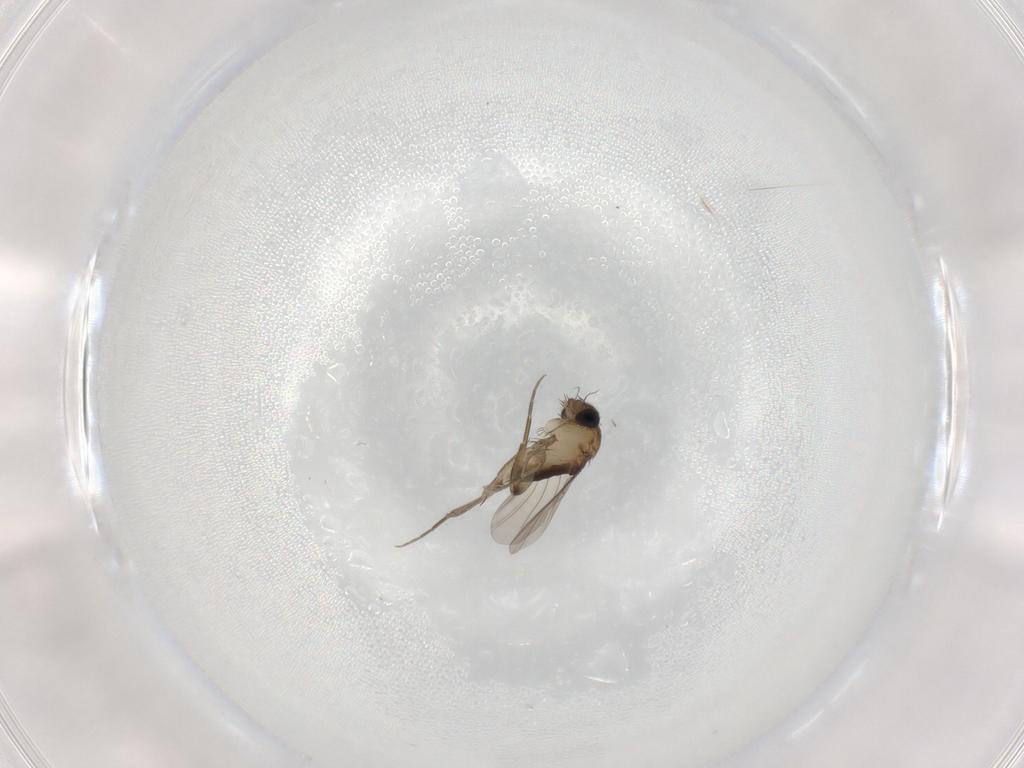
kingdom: Animalia
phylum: Arthropoda
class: Insecta
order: Diptera
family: Phoridae
